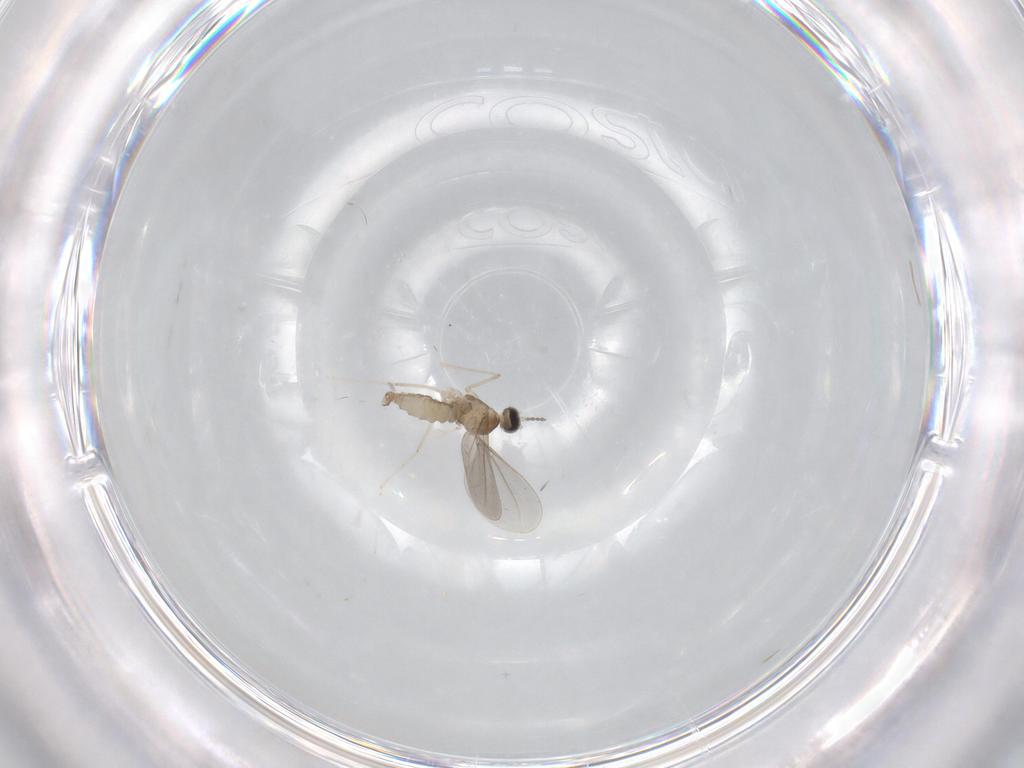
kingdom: Animalia
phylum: Arthropoda
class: Insecta
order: Diptera
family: Cecidomyiidae
